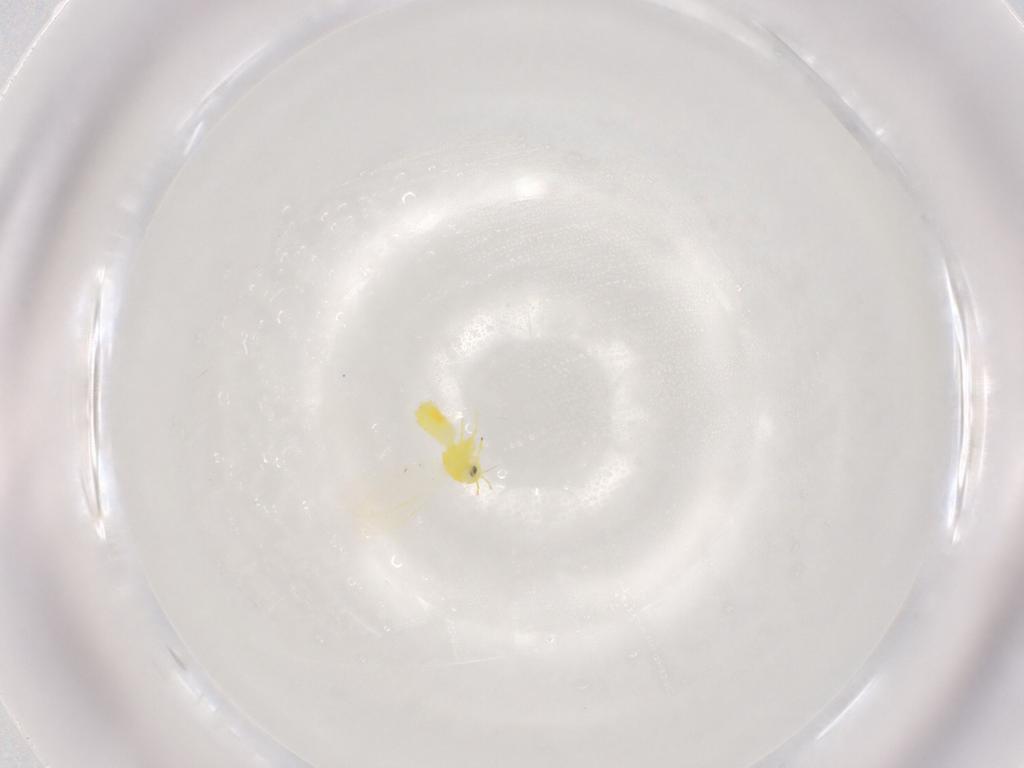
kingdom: Animalia
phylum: Arthropoda
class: Insecta
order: Hemiptera
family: Aleyrodidae
